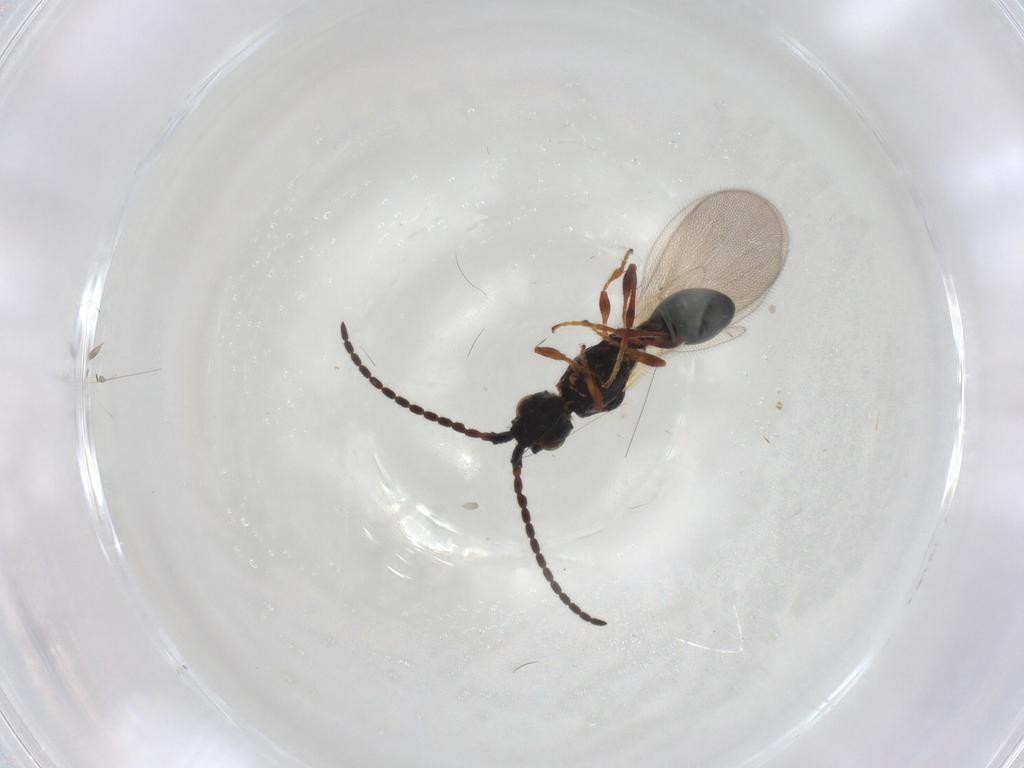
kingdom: Animalia
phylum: Arthropoda
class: Insecta
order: Hymenoptera
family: Diapriidae
